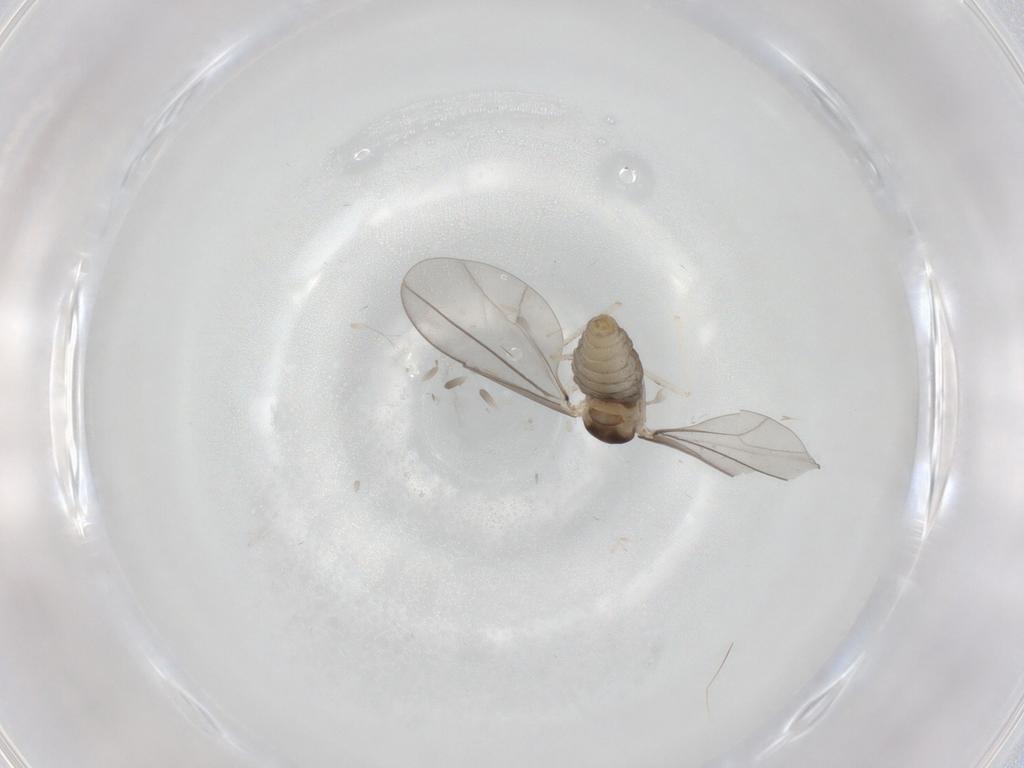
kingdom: Animalia
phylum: Arthropoda
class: Insecta
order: Diptera
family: Cecidomyiidae
